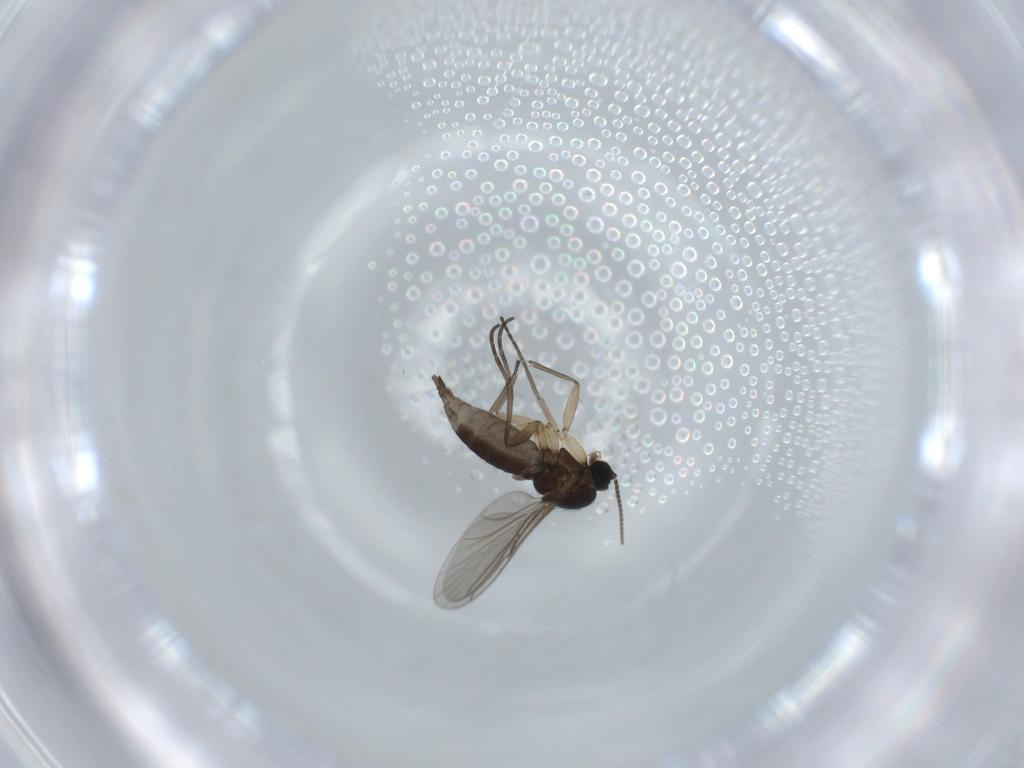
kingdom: Animalia
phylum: Arthropoda
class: Insecta
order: Diptera
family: Sciaridae
